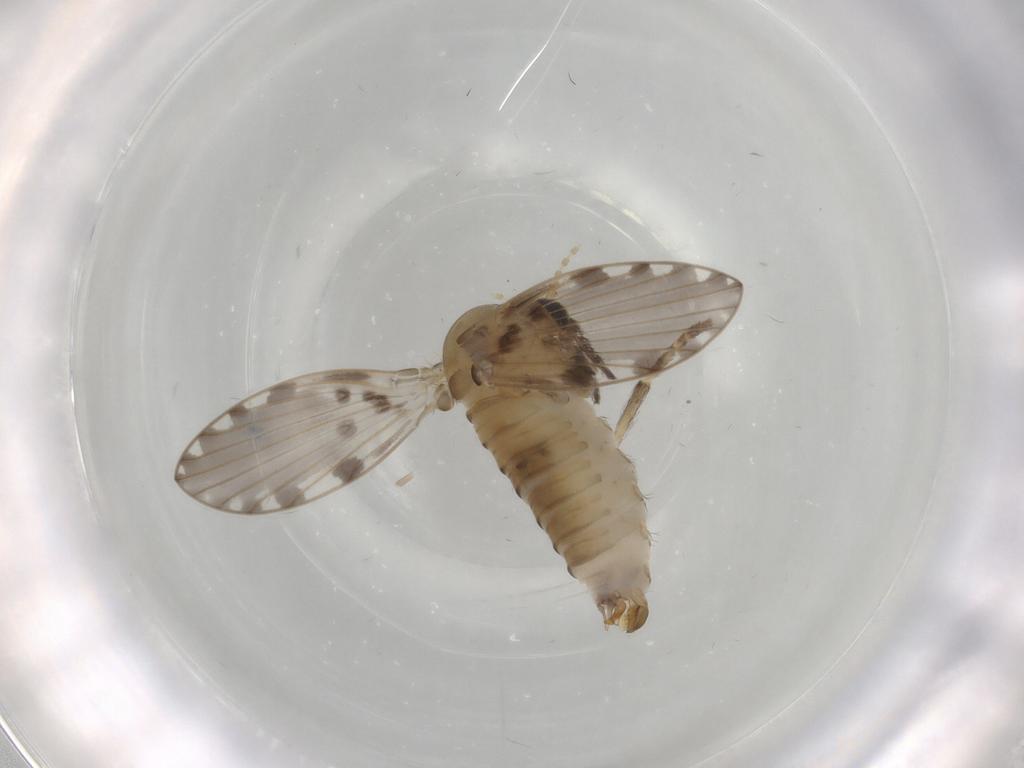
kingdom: Animalia
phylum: Arthropoda
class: Insecta
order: Diptera
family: Psychodidae
